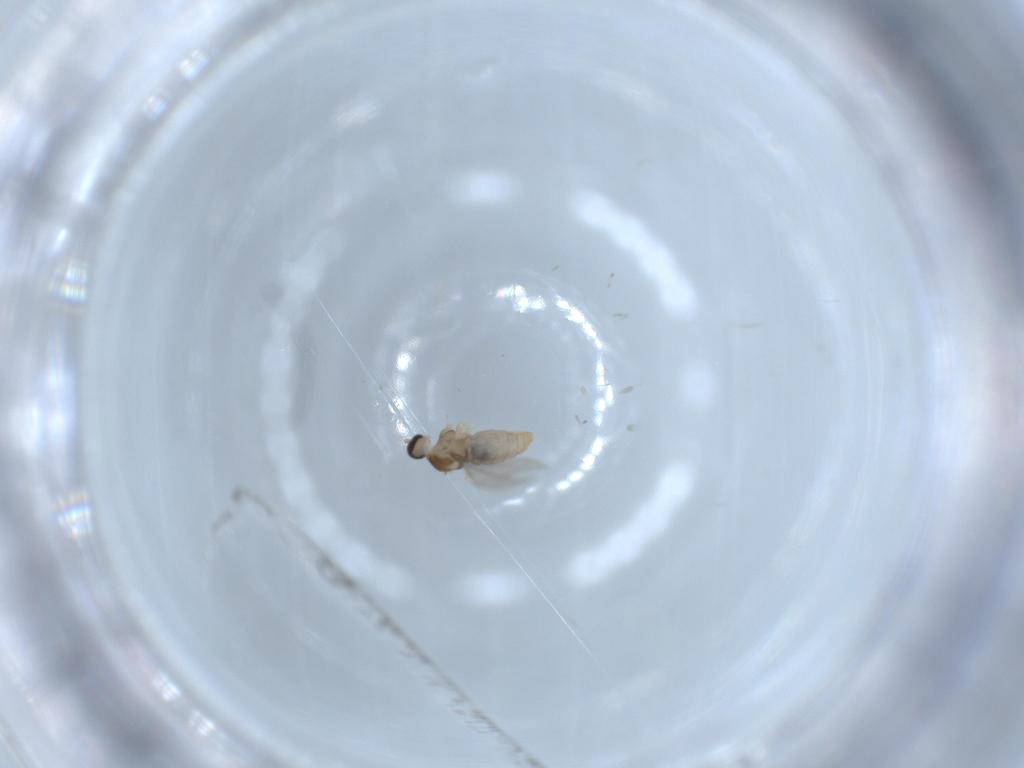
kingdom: Animalia
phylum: Arthropoda
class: Insecta
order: Diptera
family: Cecidomyiidae
